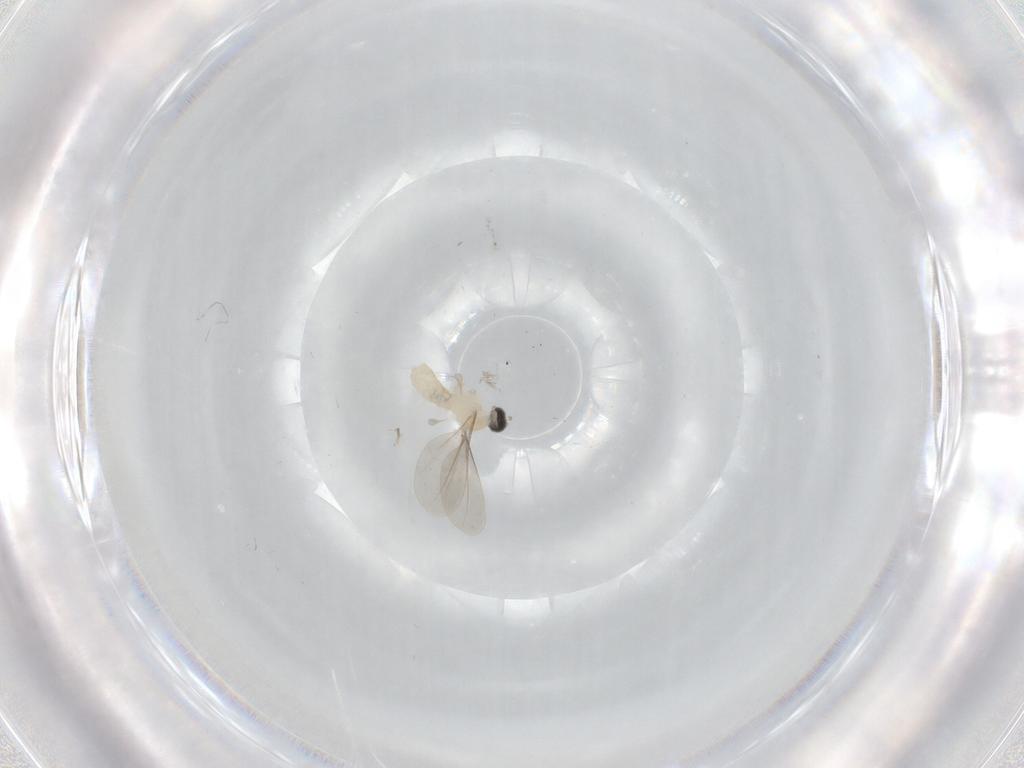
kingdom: Animalia
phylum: Arthropoda
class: Insecta
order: Diptera
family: Cecidomyiidae
